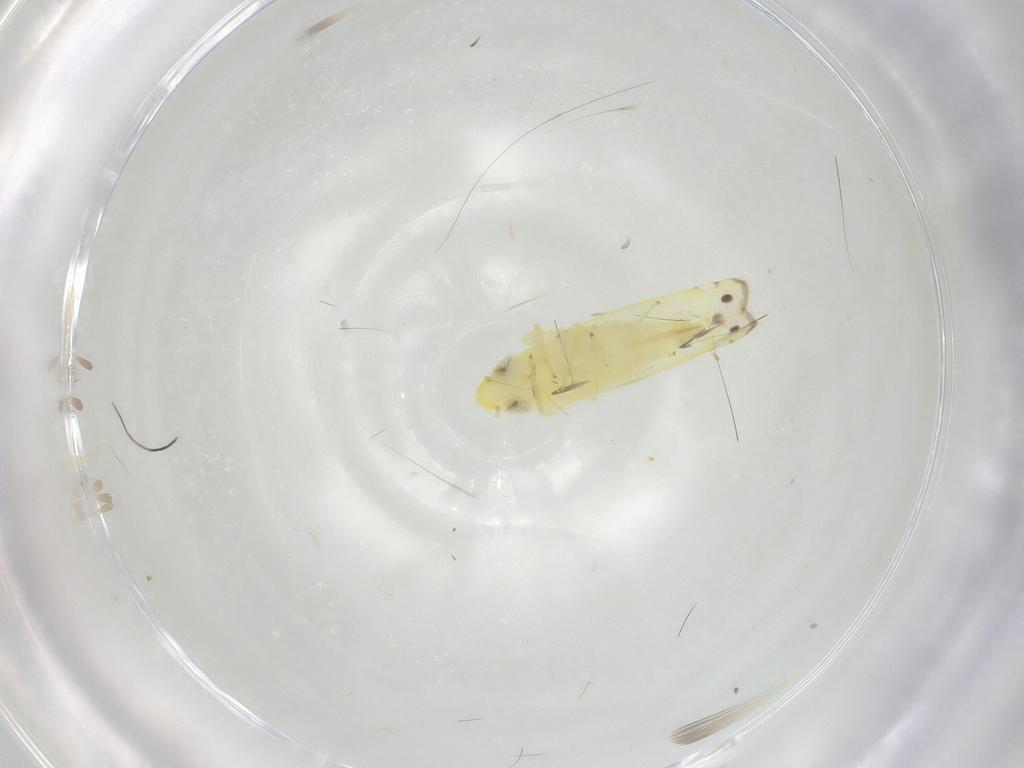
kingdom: Animalia
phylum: Arthropoda
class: Insecta
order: Hemiptera
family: Cicadellidae
